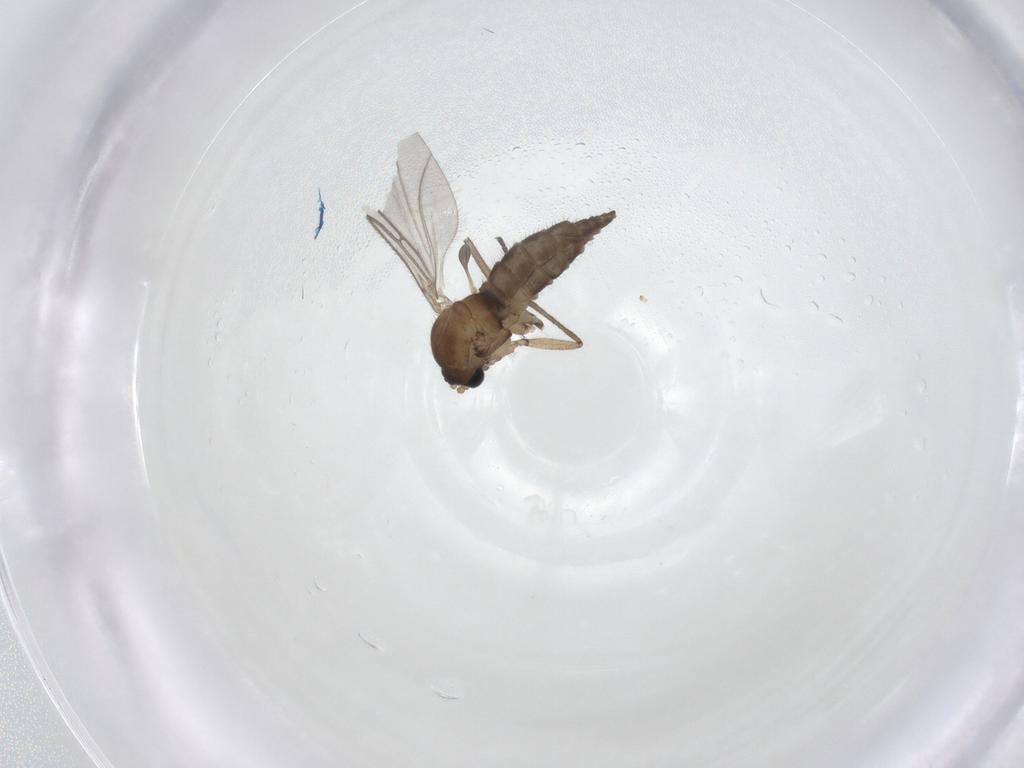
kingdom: Animalia
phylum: Arthropoda
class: Insecta
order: Diptera
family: Sciaridae
